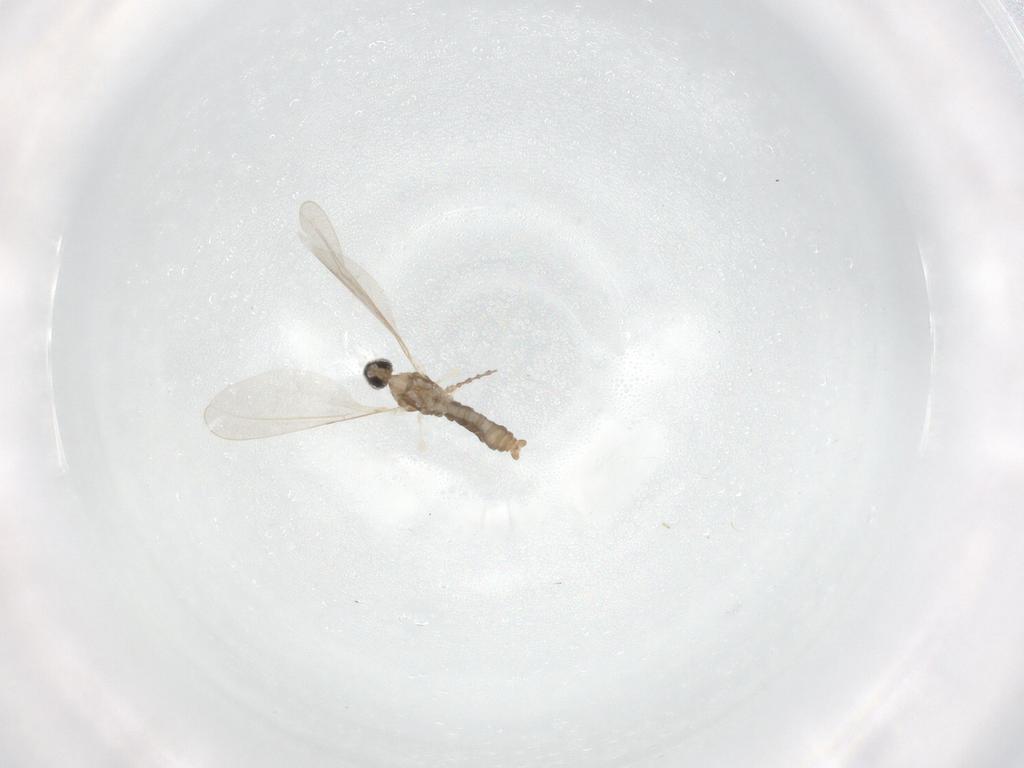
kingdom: Animalia
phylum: Arthropoda
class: Insecta
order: Diptera
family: Cecidomyiidae
